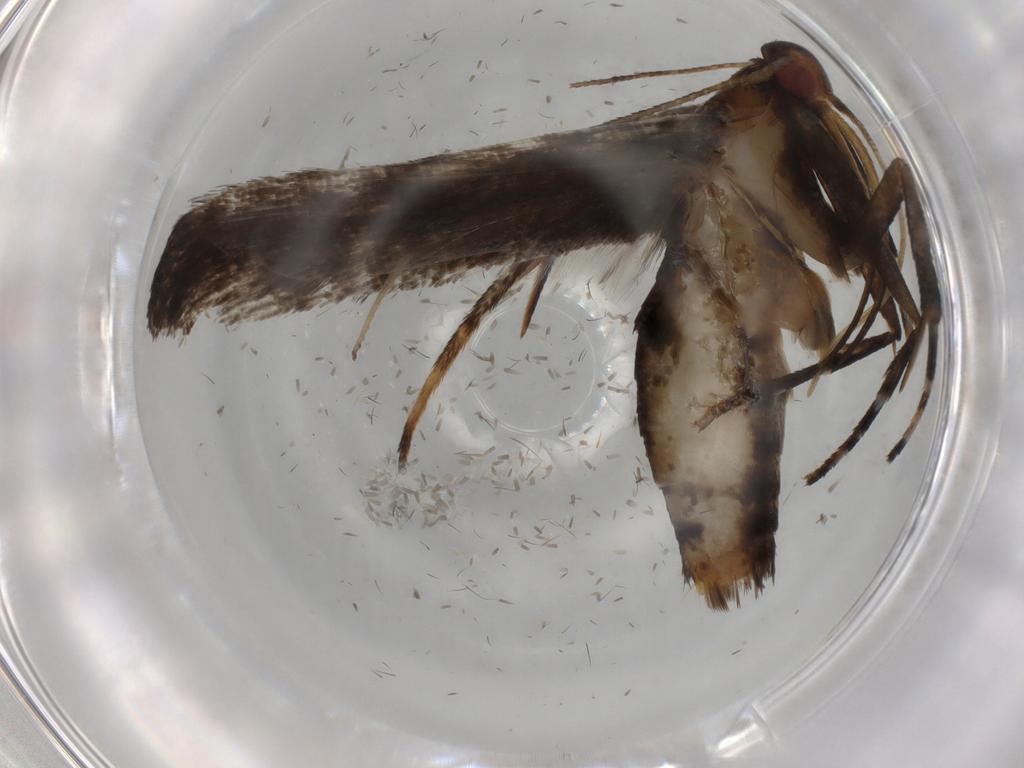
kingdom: Animalia
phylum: Arthropoda
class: Insecta
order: Lepidoptera
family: Gelechiidae
